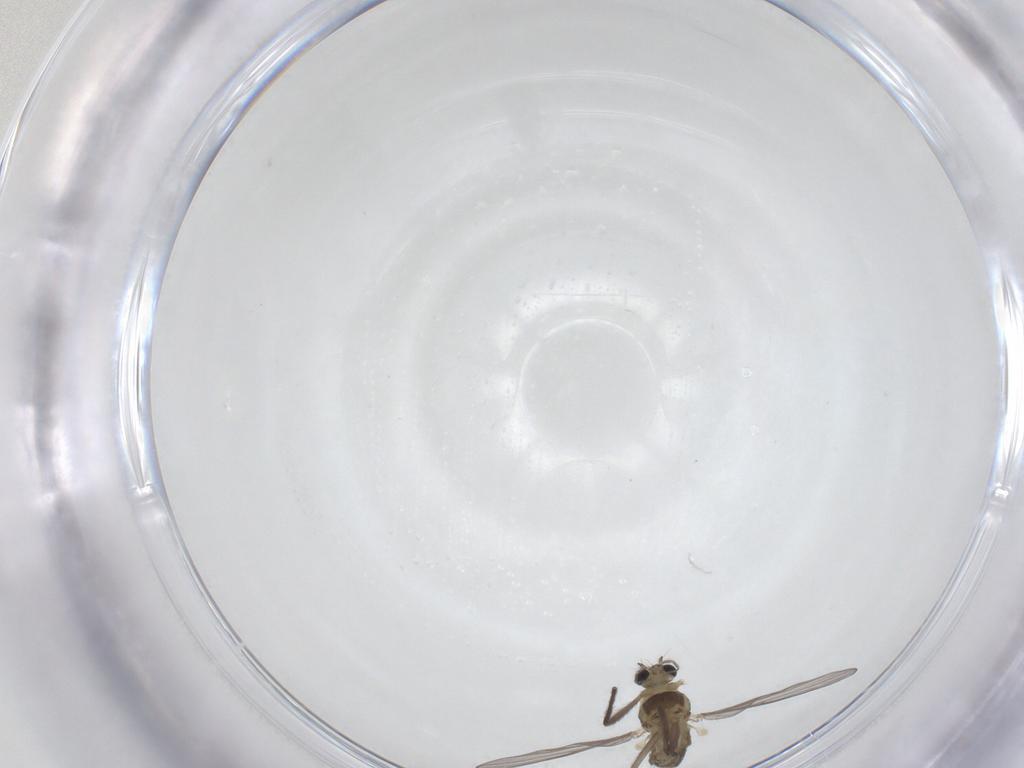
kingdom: Animalia
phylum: Arthropoda
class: Insecta
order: Diptera
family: Chironomidae
